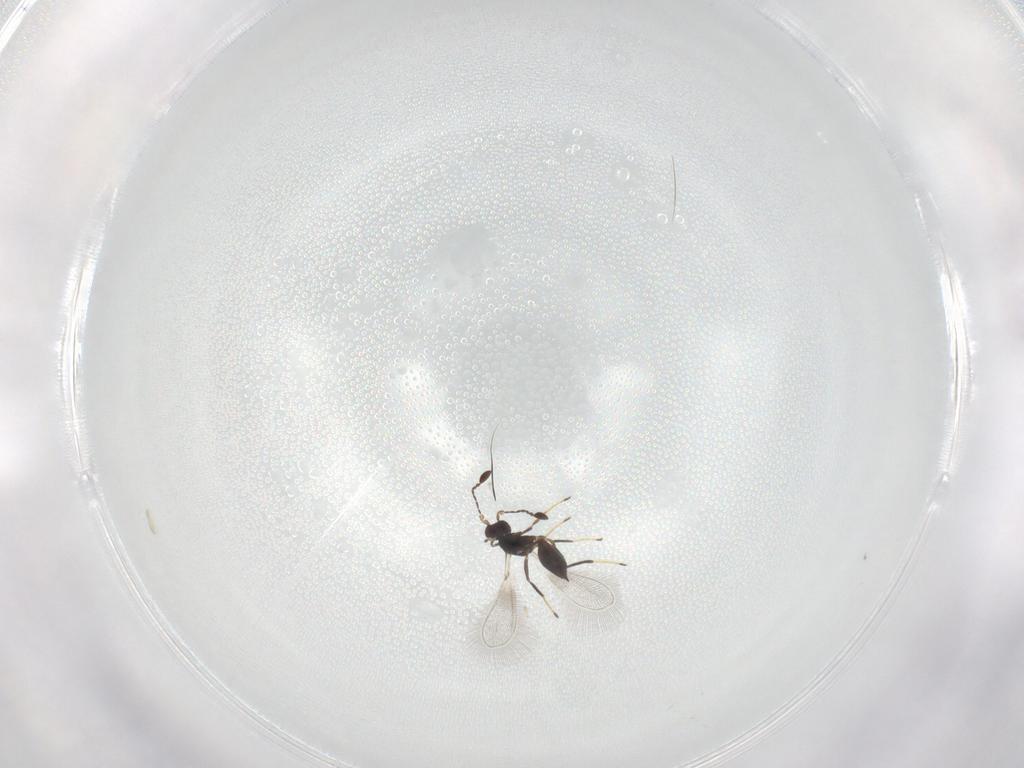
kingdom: Animalia
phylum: Arthropoda
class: Insecta
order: Hymenoptera
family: Mymaridae
